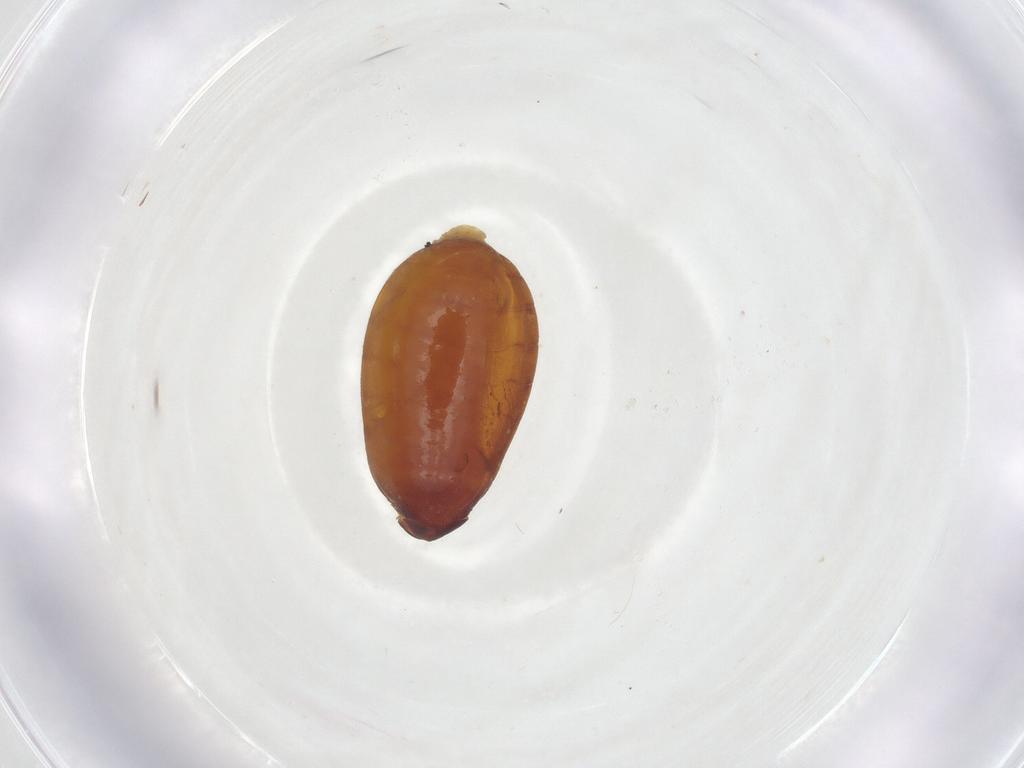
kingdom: Animalia
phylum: Arthropoda
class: Insecta
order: Diptera
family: Fergusoninidae
